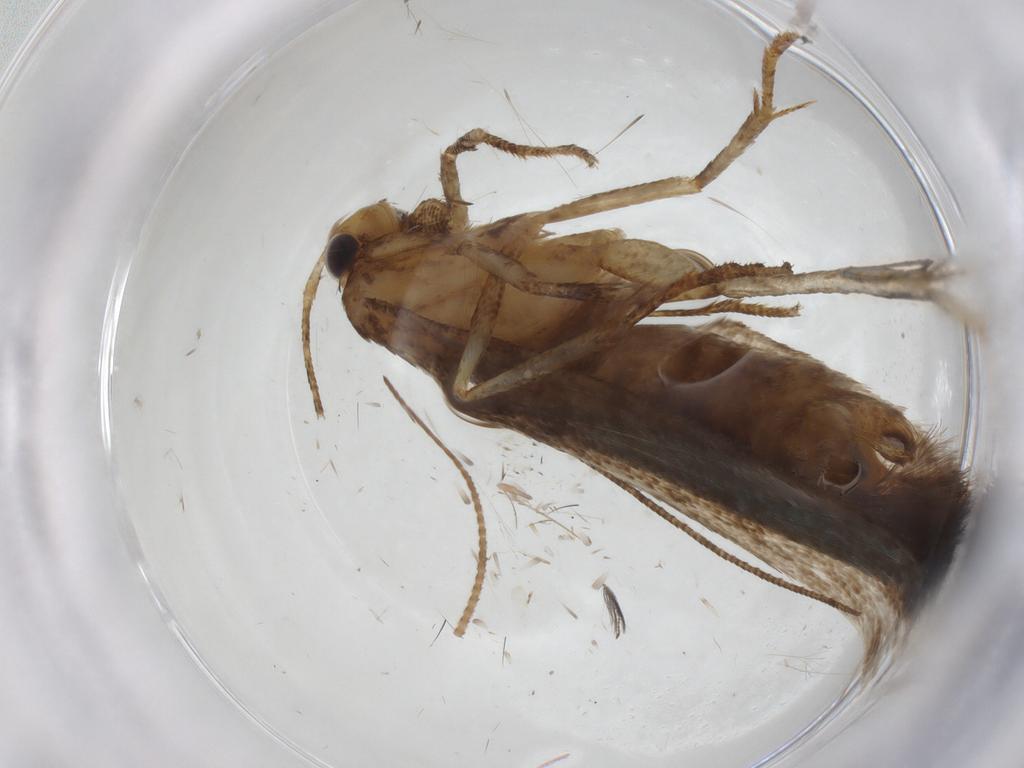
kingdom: Animalia
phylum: Arthropoda
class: Insecta
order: Lepidoptera
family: Gelechiidae
